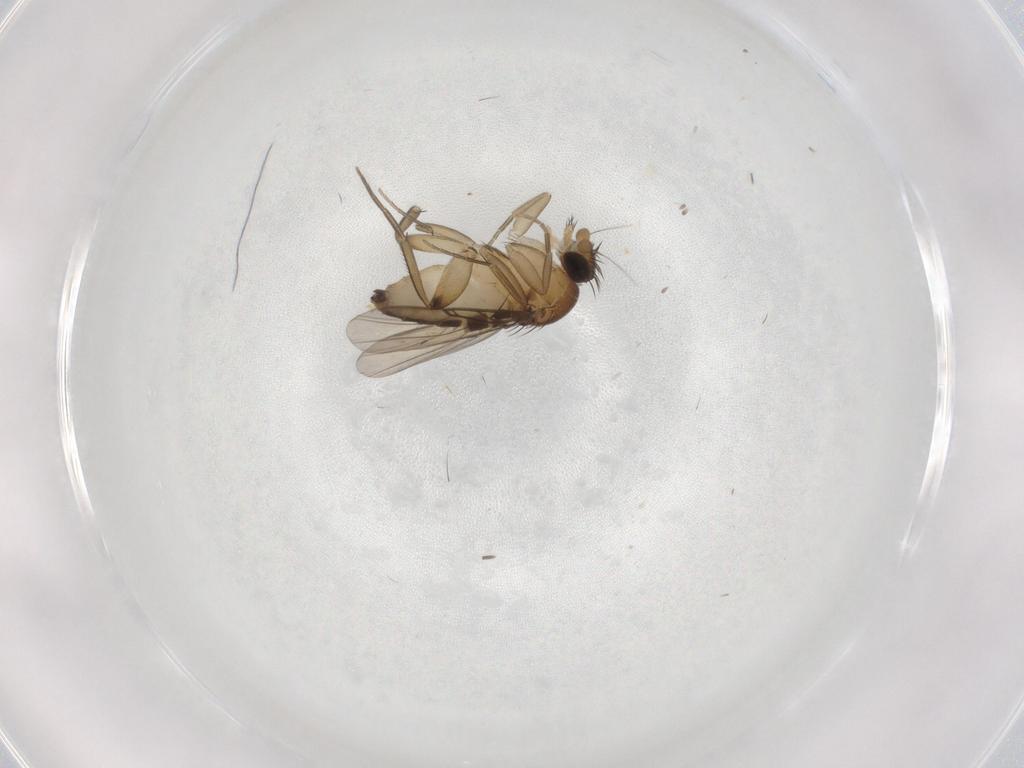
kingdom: Animalia
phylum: Arthropoda
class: Insecta
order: Diptera
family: Phoridae
